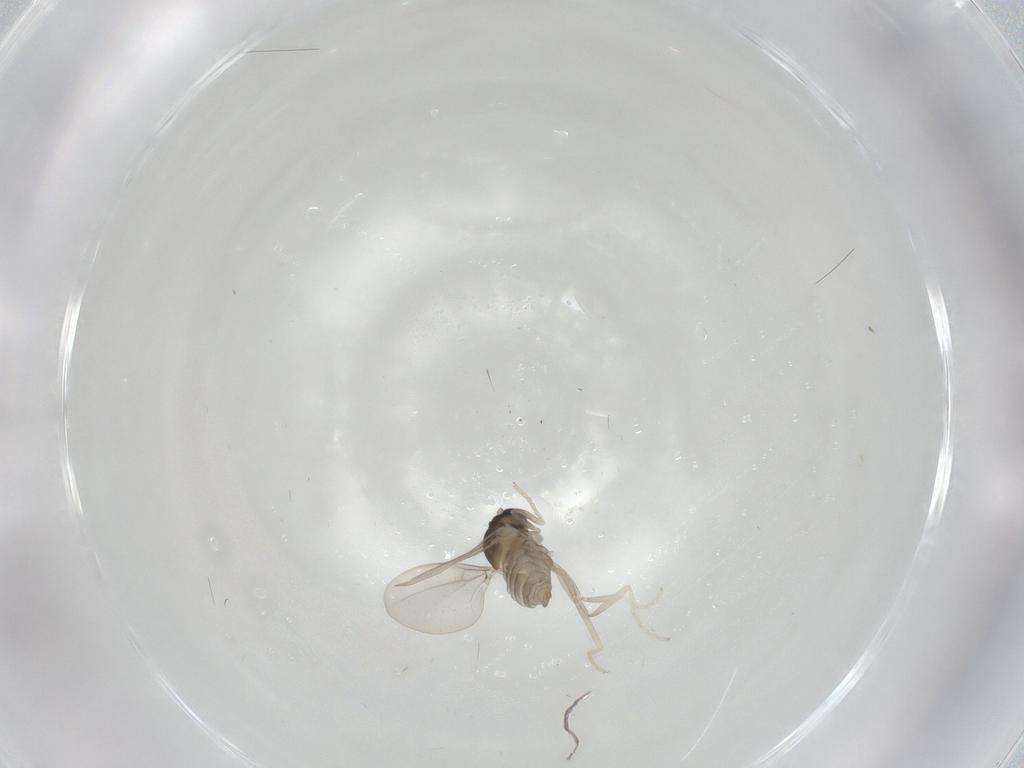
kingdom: Animalia
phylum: Arthropoda
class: Insecta
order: Diptera
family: Cecidomyiidae
